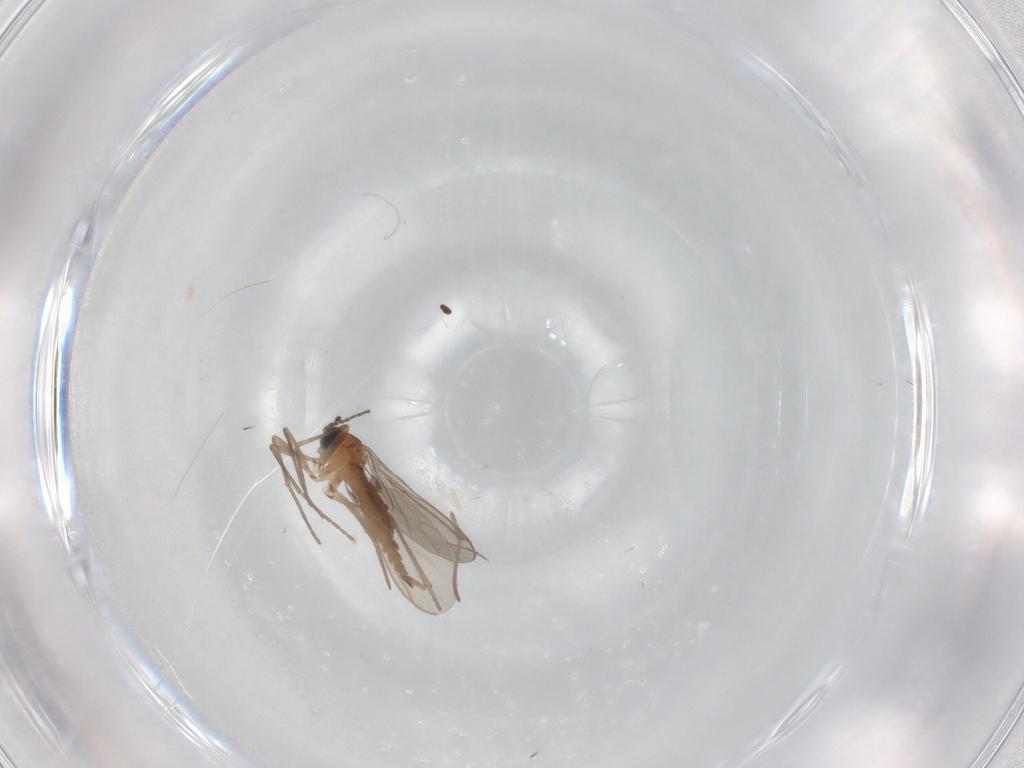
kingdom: Animalia
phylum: Arthropoda
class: Insecta
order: Diptera
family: Sciaridae
